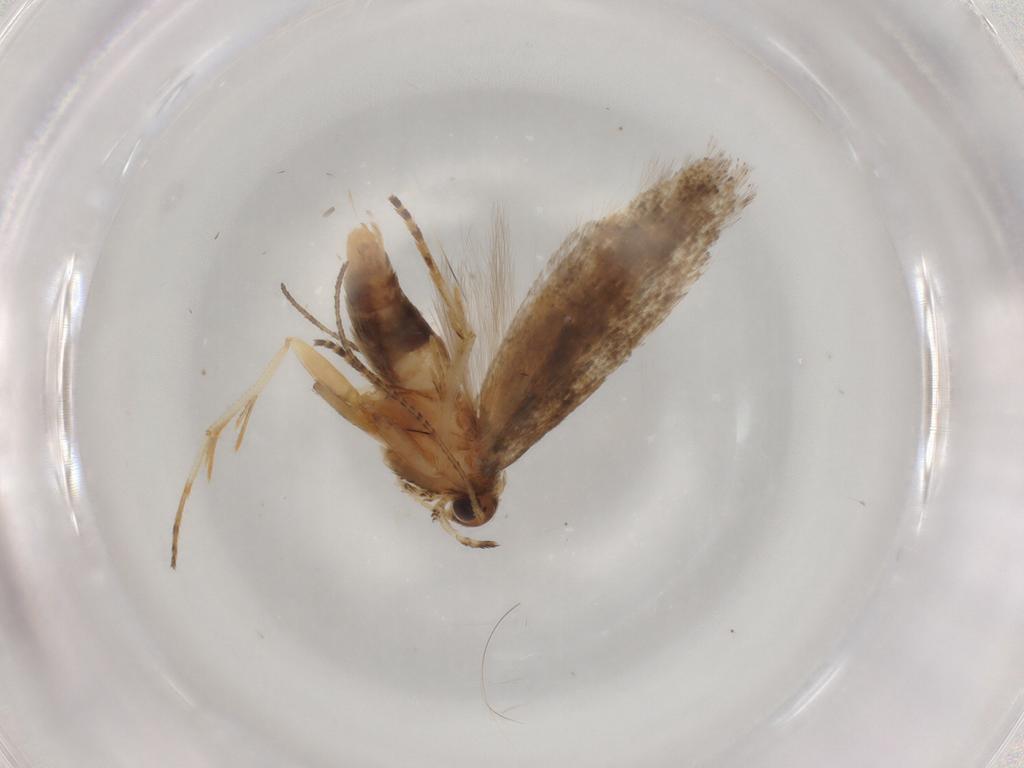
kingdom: Animalia
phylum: Arthropoda
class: Insecta
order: Lepidoptera
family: Gelechiidae
